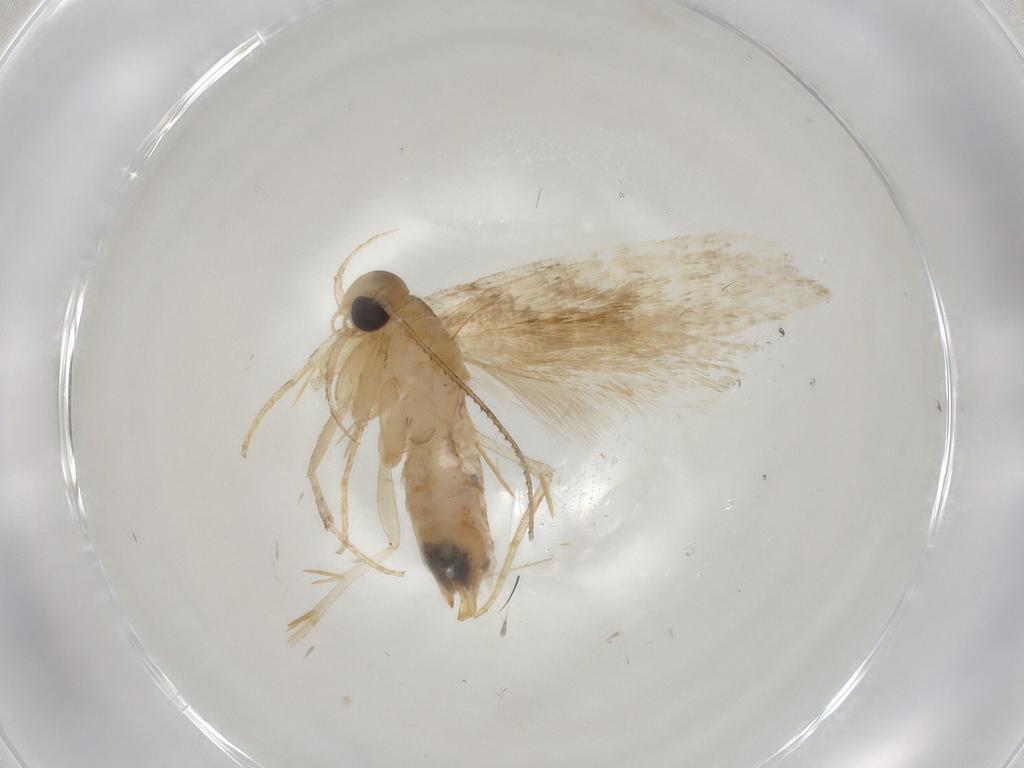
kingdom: Animalia
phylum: Arthropoda
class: Insecta
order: Lepidoptera
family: Gelechiidae
